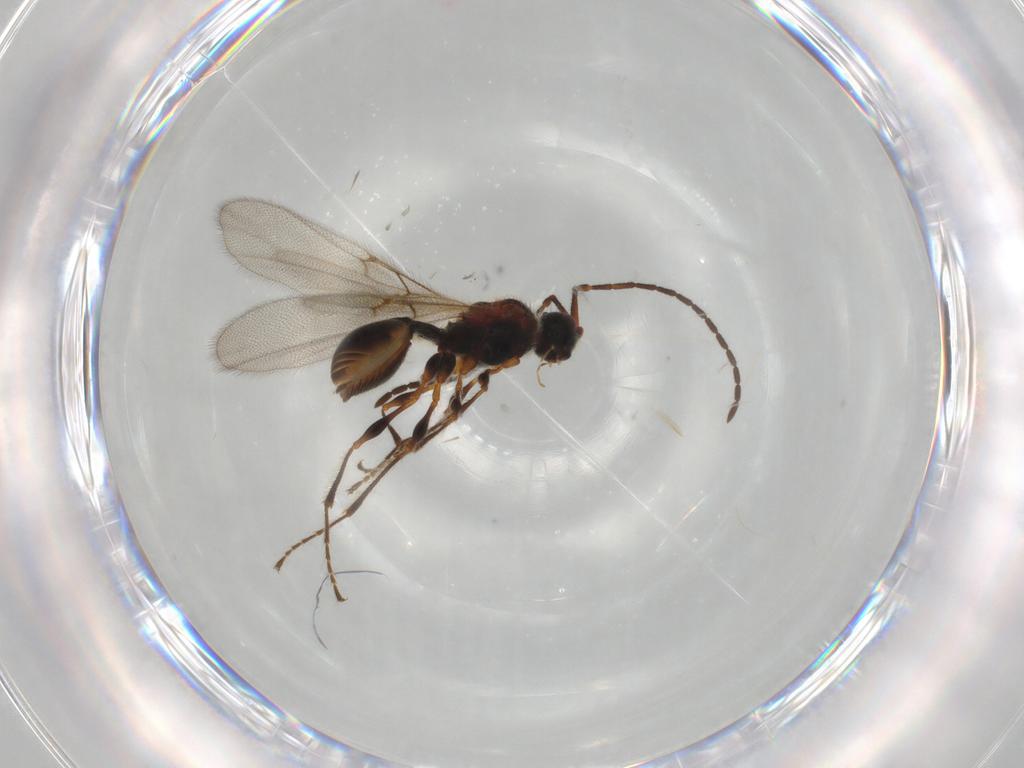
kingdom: Animalia
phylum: Arthropoda
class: Insecta
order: Hymenoptera
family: Diapriidae
